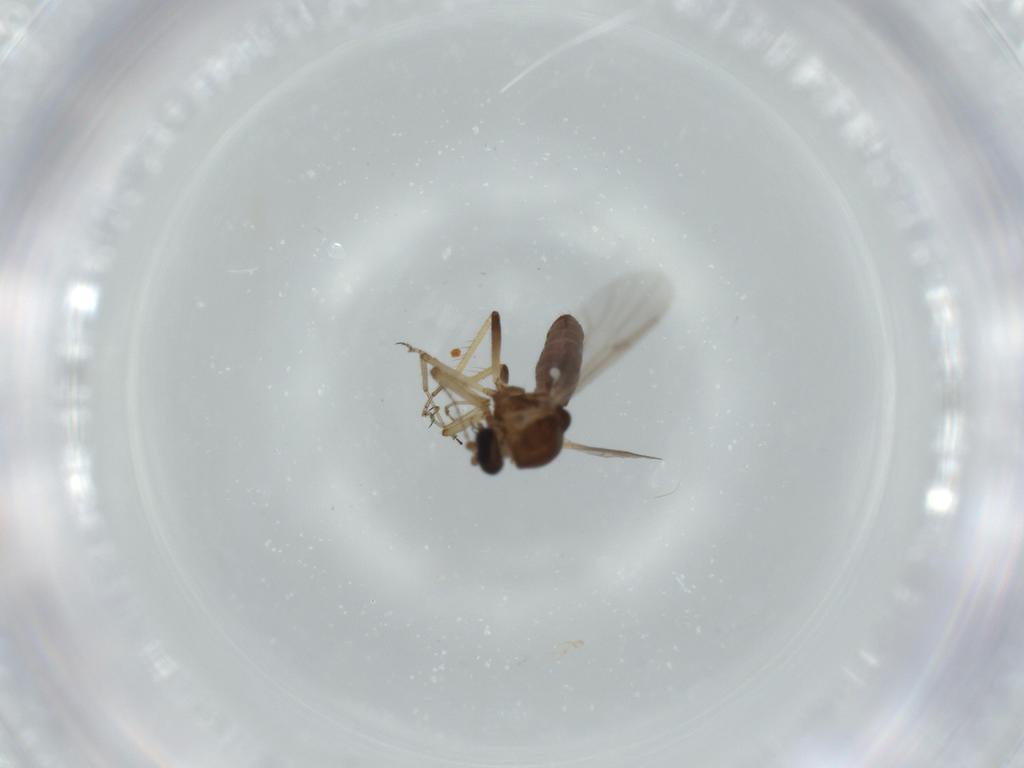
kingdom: Animalia
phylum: Arthropoda
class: Insecta
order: Diptera
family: Ceratopogonidae
